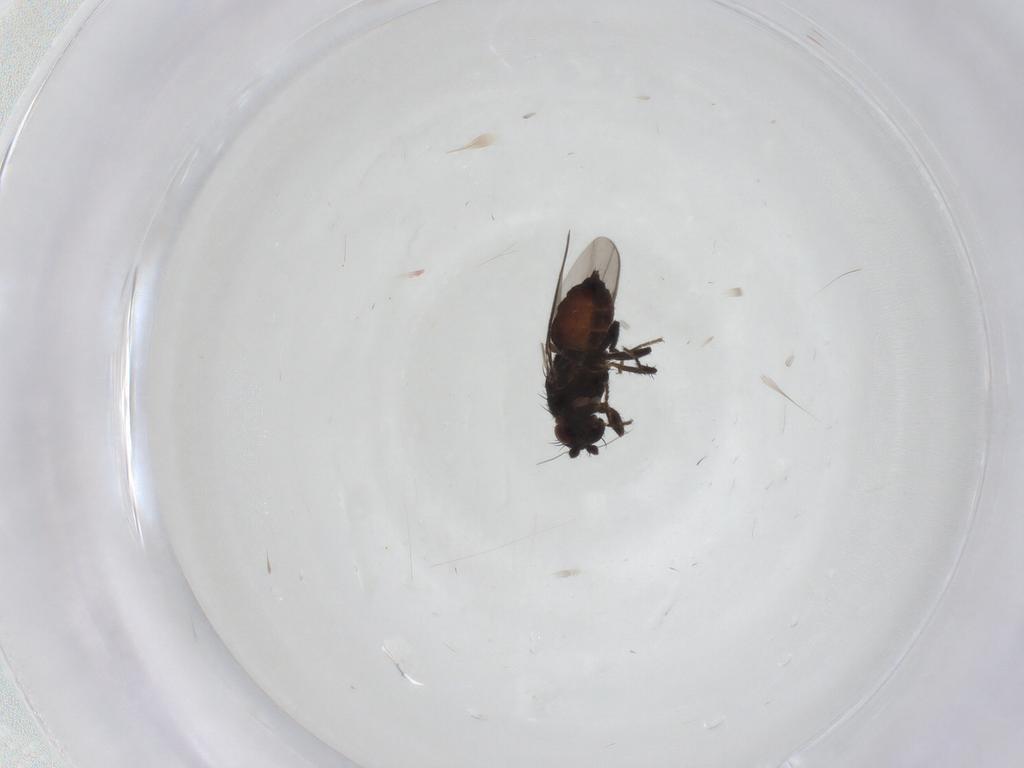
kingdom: Animalia
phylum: Arthropoda
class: Insecta
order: Diptera
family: Sphaeroceridae
